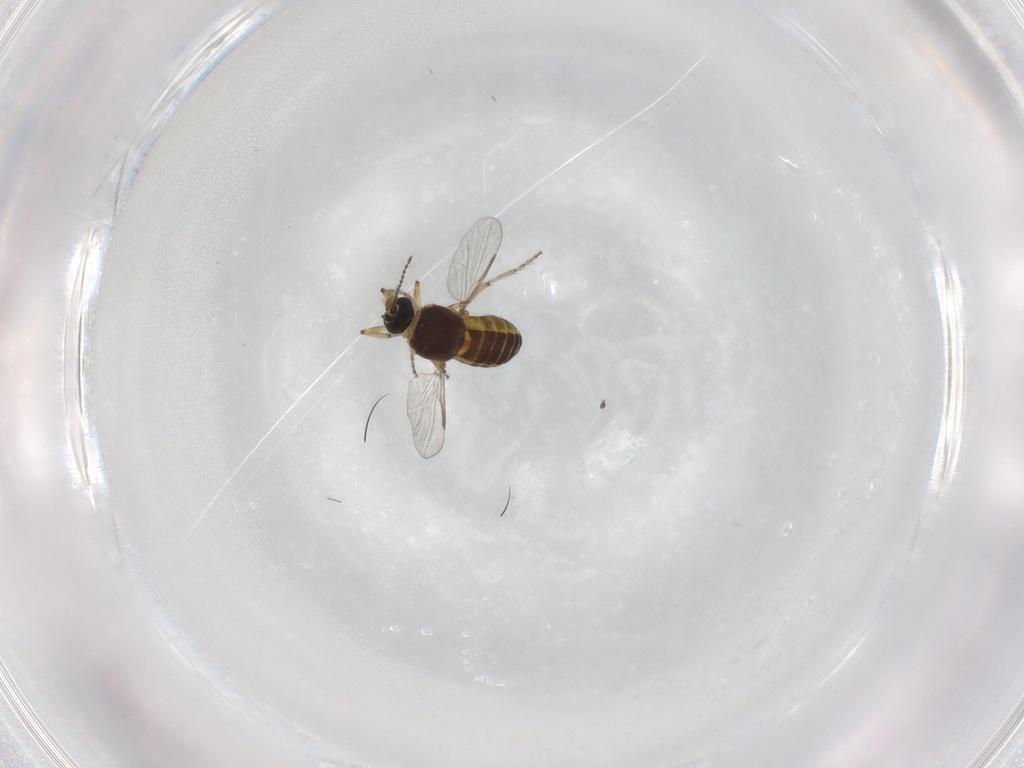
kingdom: Animalia
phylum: Arthropoda
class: Insecta
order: Diptera
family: Ceratopogonidae
